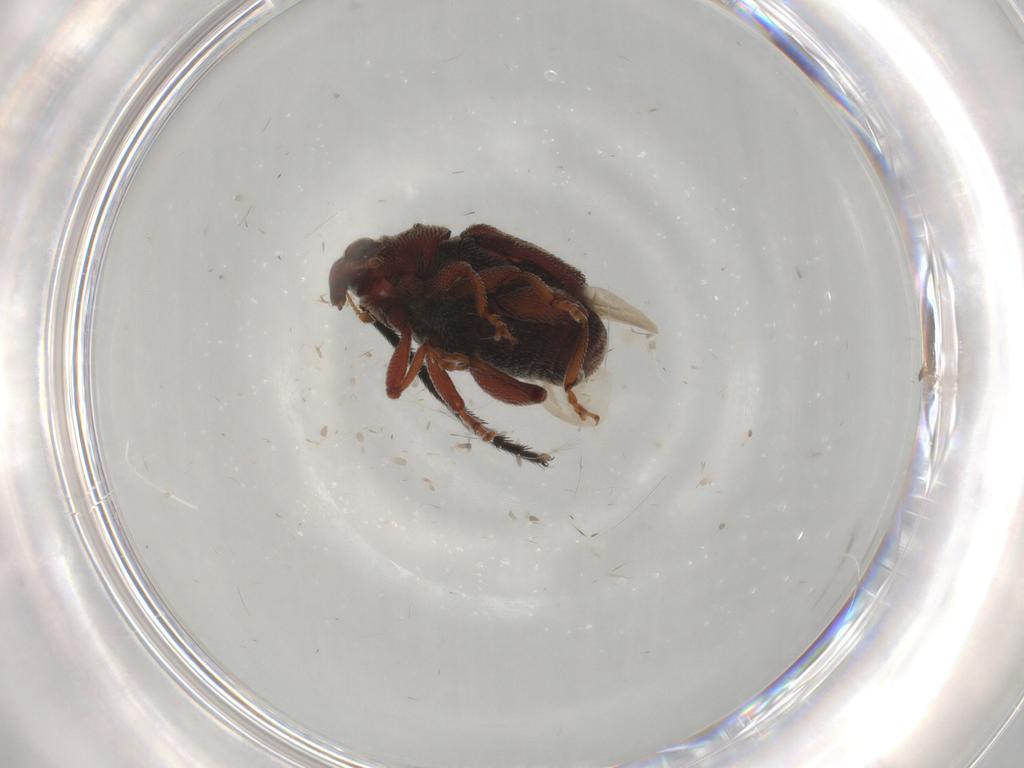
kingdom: Animalia
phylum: Arthropoda
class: Insecta
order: Coleoptera
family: Curculionidae
